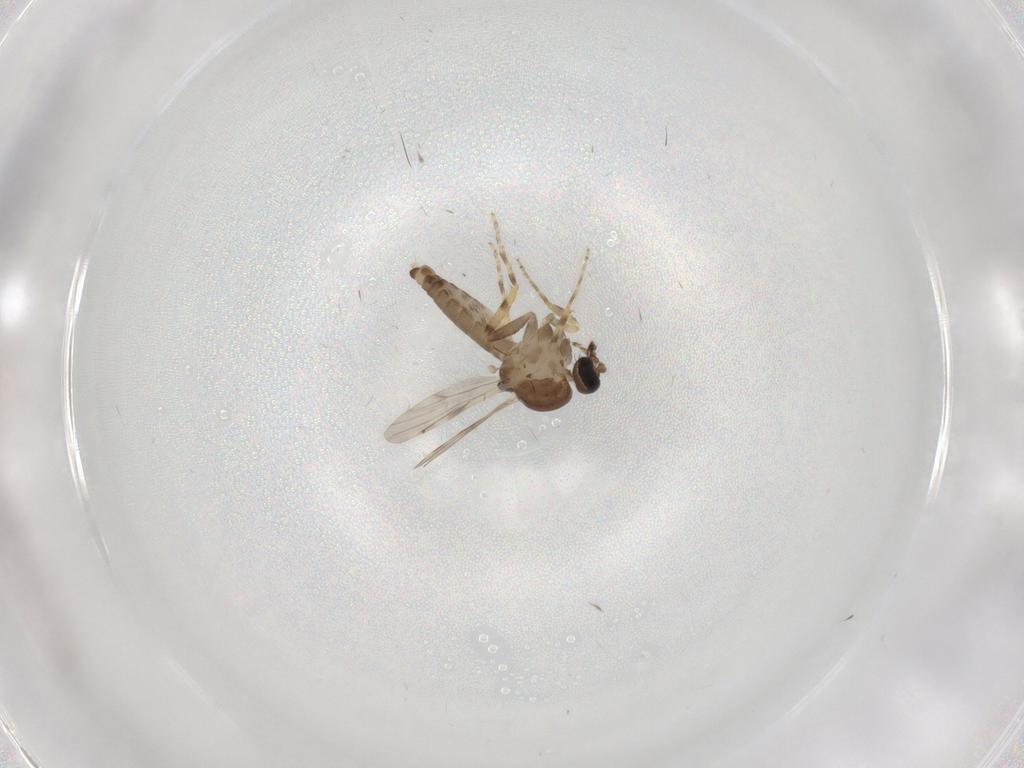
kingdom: Animalia
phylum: Arthropoda
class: Insecta
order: Diptera
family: Ceratopogonidae
